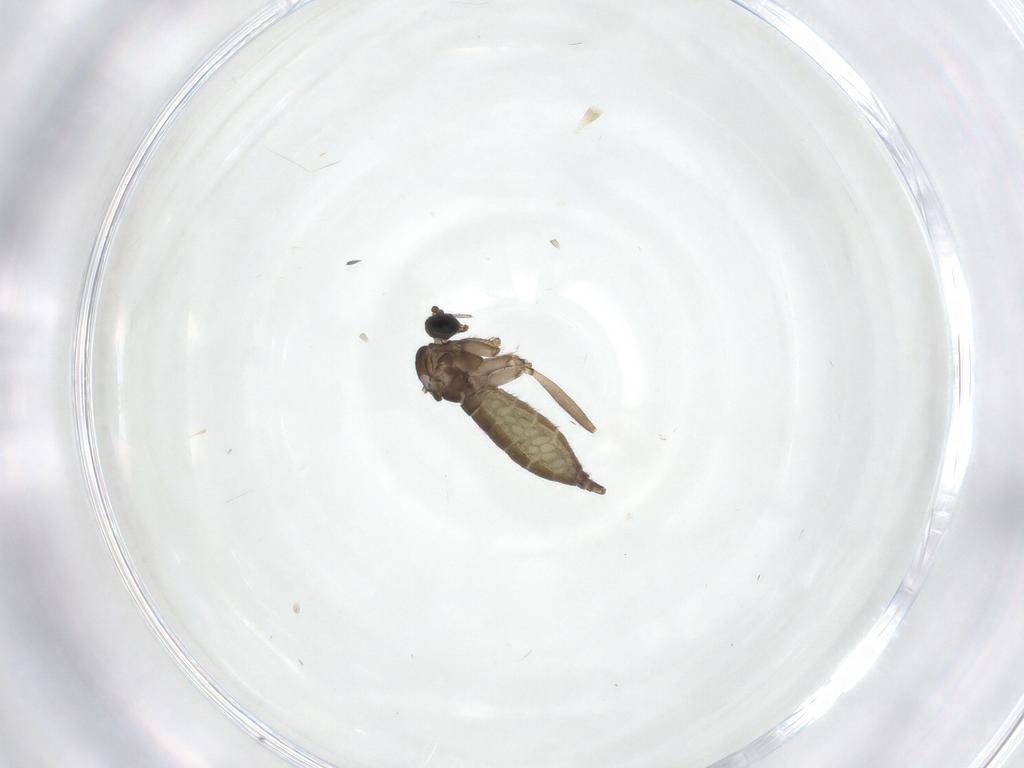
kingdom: Animalia
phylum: Arthropoda
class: Insecta
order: Diptera
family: Sciaridae
